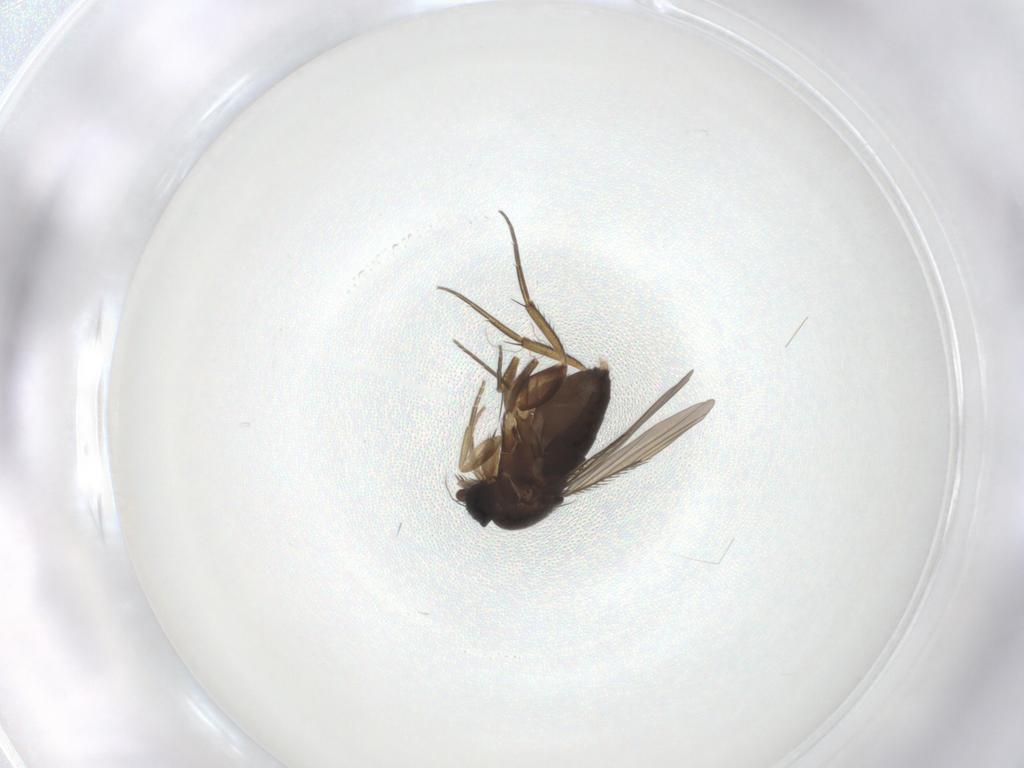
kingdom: Animalia
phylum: Arthropoda
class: Insecta
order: Diptera
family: Phoridae
